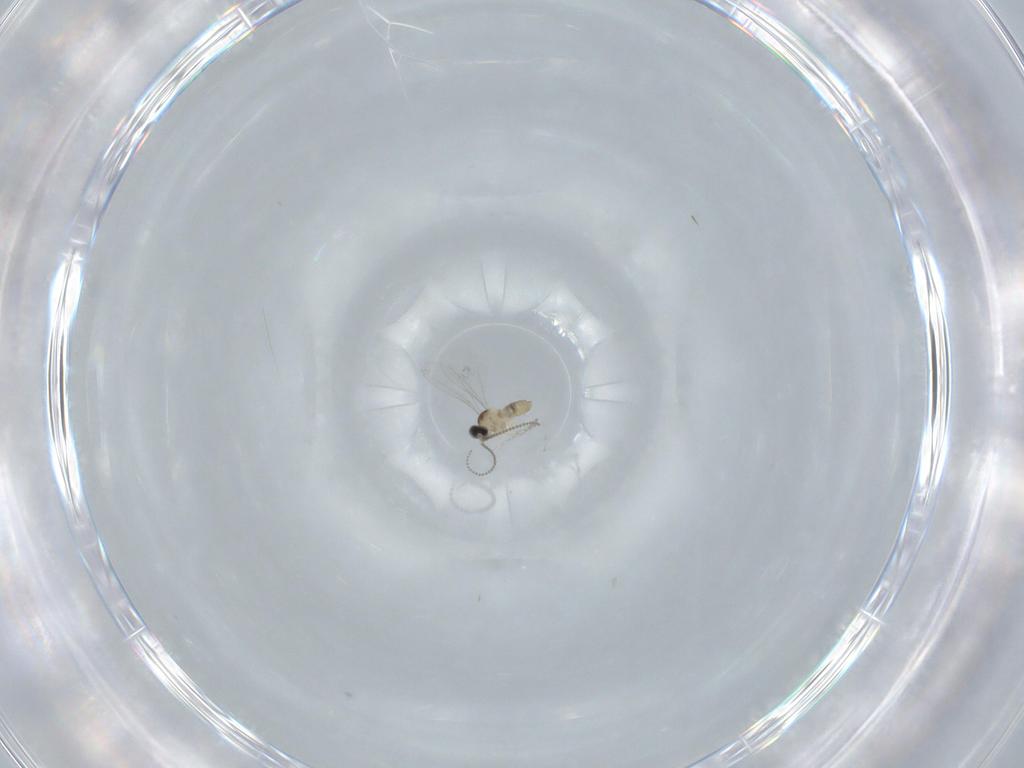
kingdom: Animalia
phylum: Arthropoda
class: Insecta
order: Diptera
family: Cecidomyiidae
